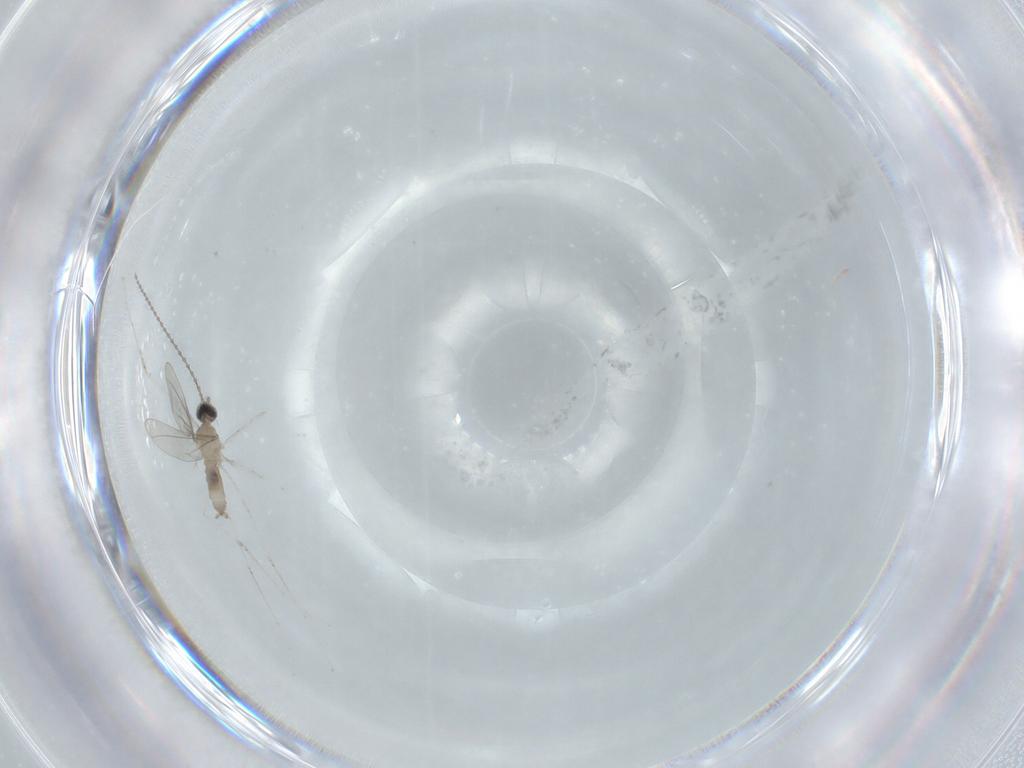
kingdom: Animalia
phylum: Arthropoda
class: Insecta
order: Diptera
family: Cecidomyiidae
